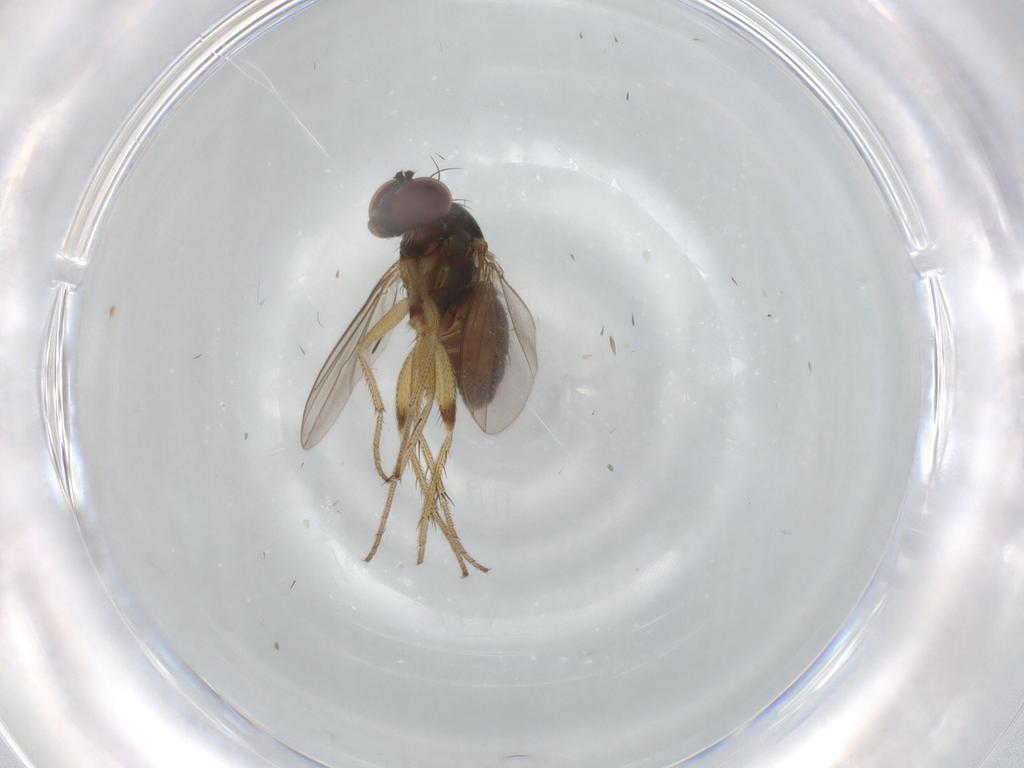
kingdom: Animalia
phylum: Arthropoda
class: Insecta
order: Diptera
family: Dolichopodidae
